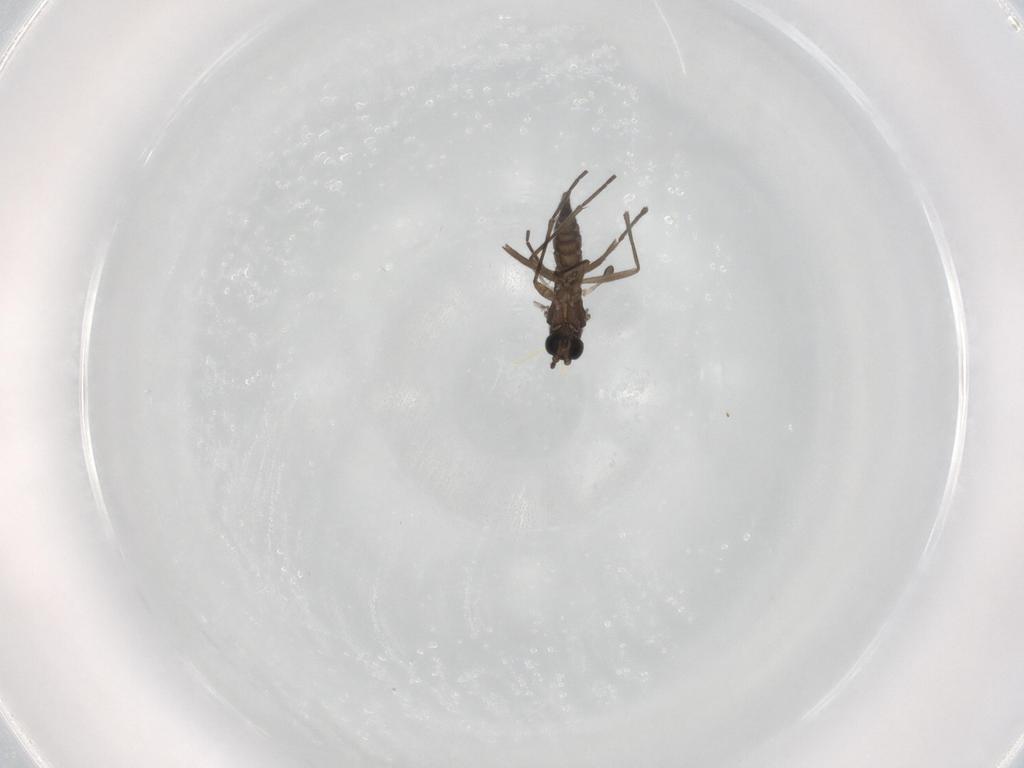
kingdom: Animalia
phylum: Arthropoda
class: Insecta
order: Diptera
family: Sciaridae
